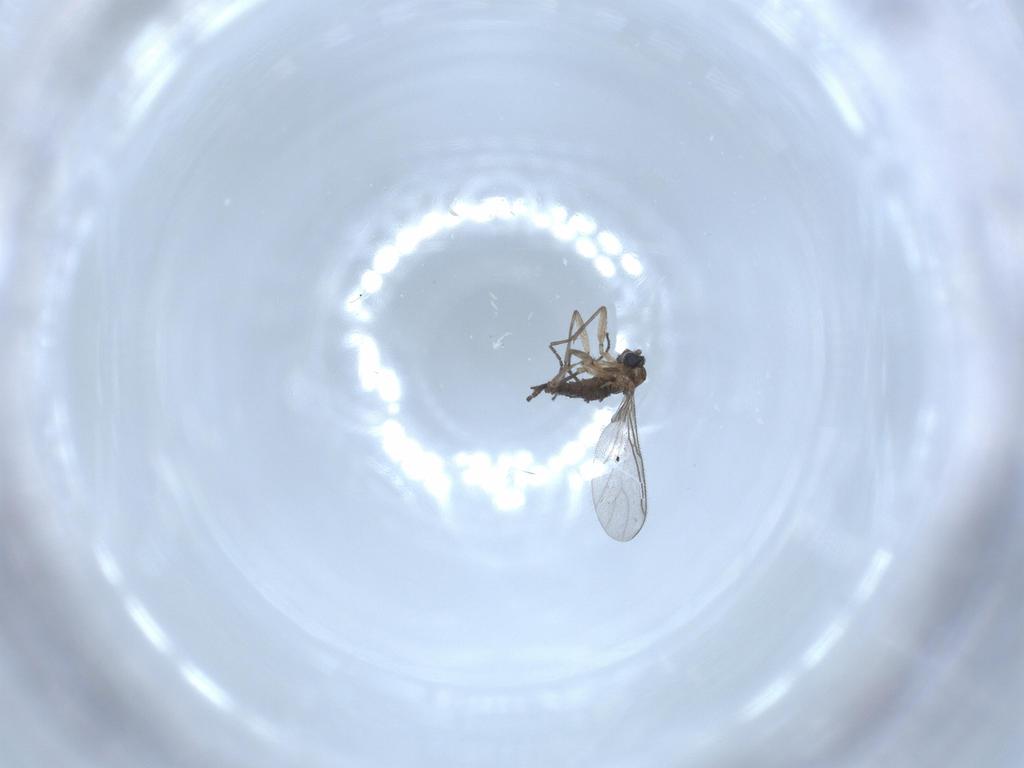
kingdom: Animalia
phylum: Arthropoda
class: Insecta
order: Diptera
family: Sciaridae
